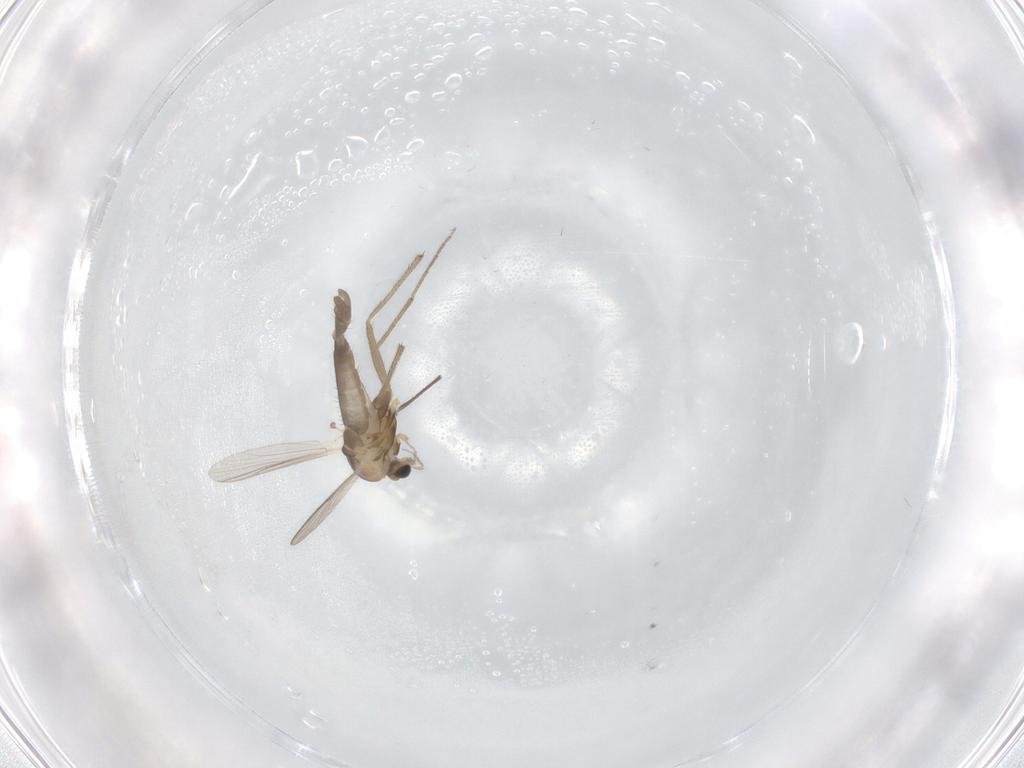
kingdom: Animalia
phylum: Arthropoda
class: Insecta
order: Diptera
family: Chironomidae
